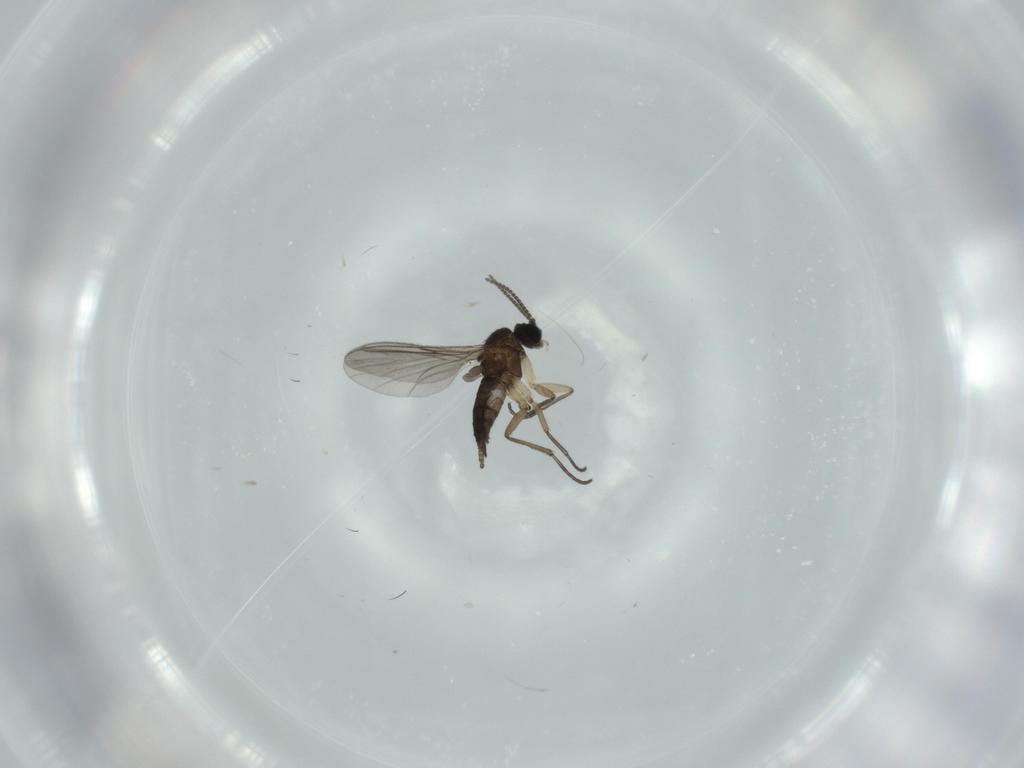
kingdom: Animalia
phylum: Arthropoda
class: Insecta
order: Diptera
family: Sciaridae
